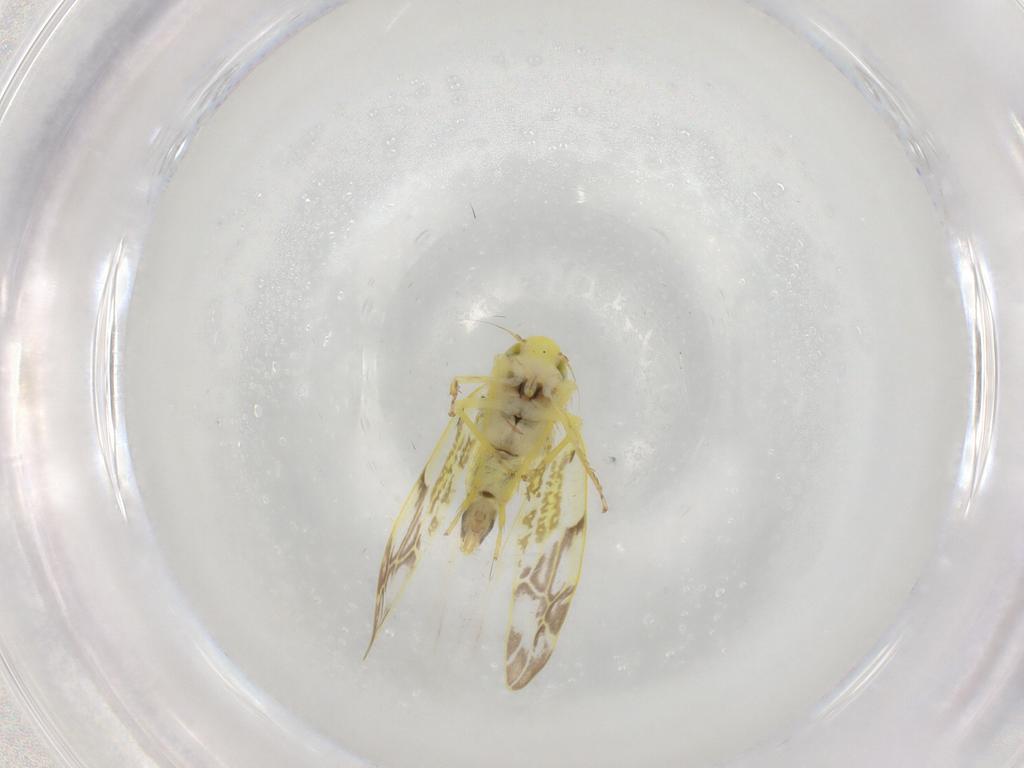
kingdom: Animalia
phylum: Arthropoda
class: Insecta
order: Hemiptera
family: Cicadellidae
